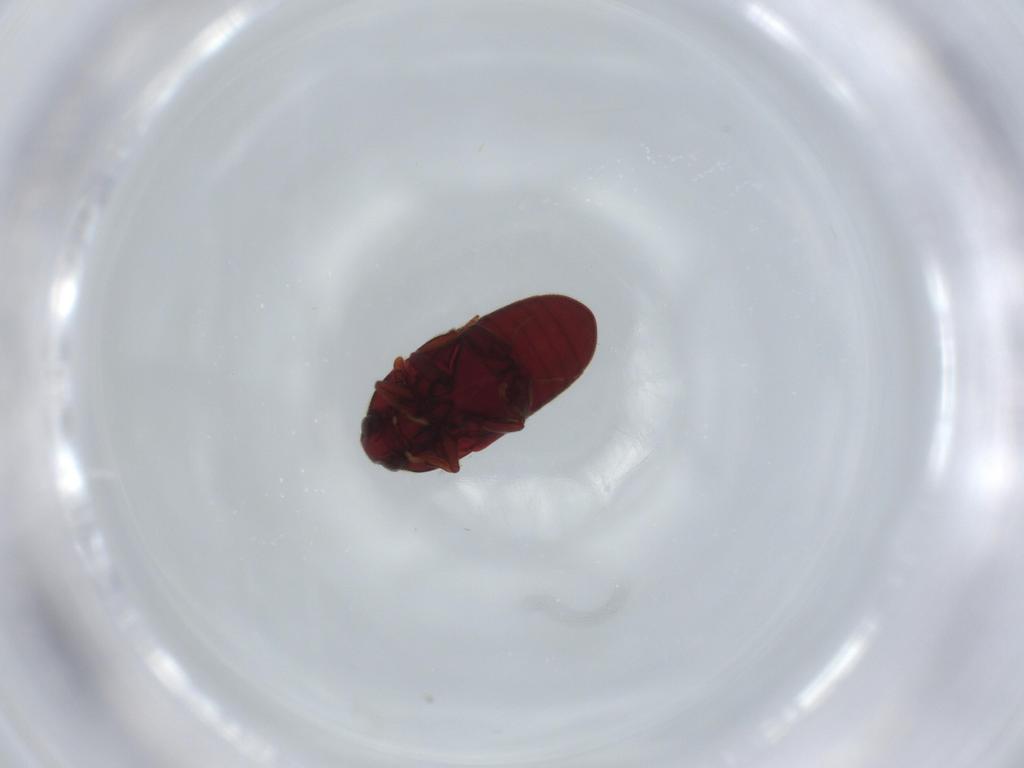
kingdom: Animalia
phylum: Arthropoda
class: Insecta
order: Coleoptera
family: Throscidae
